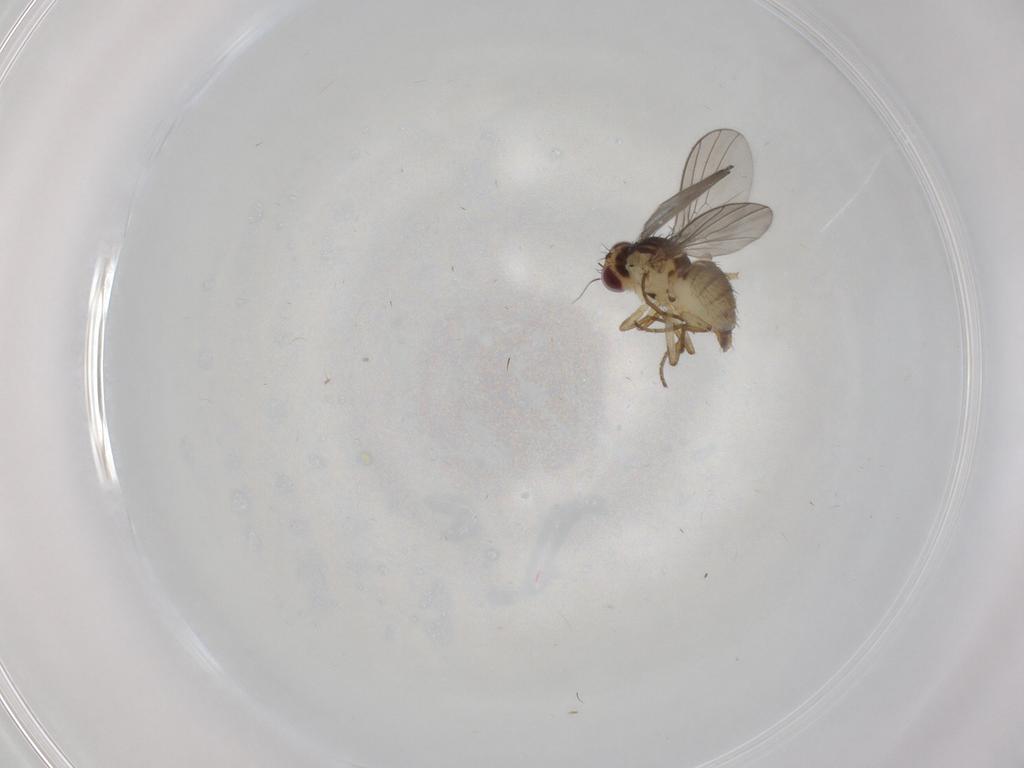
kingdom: Animalia
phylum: Arthropoda
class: Insecta
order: Diptera
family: Agromyzidae
